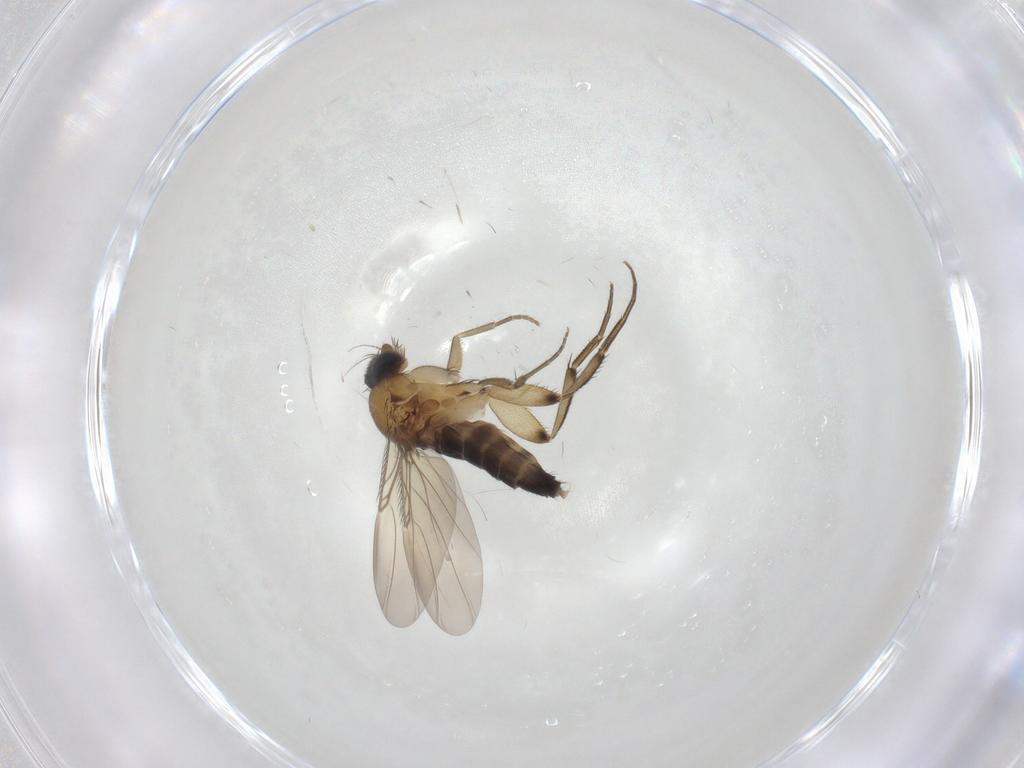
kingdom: Animalia
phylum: Arthropoda
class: Insecta
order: Diptera
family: Phoridae
